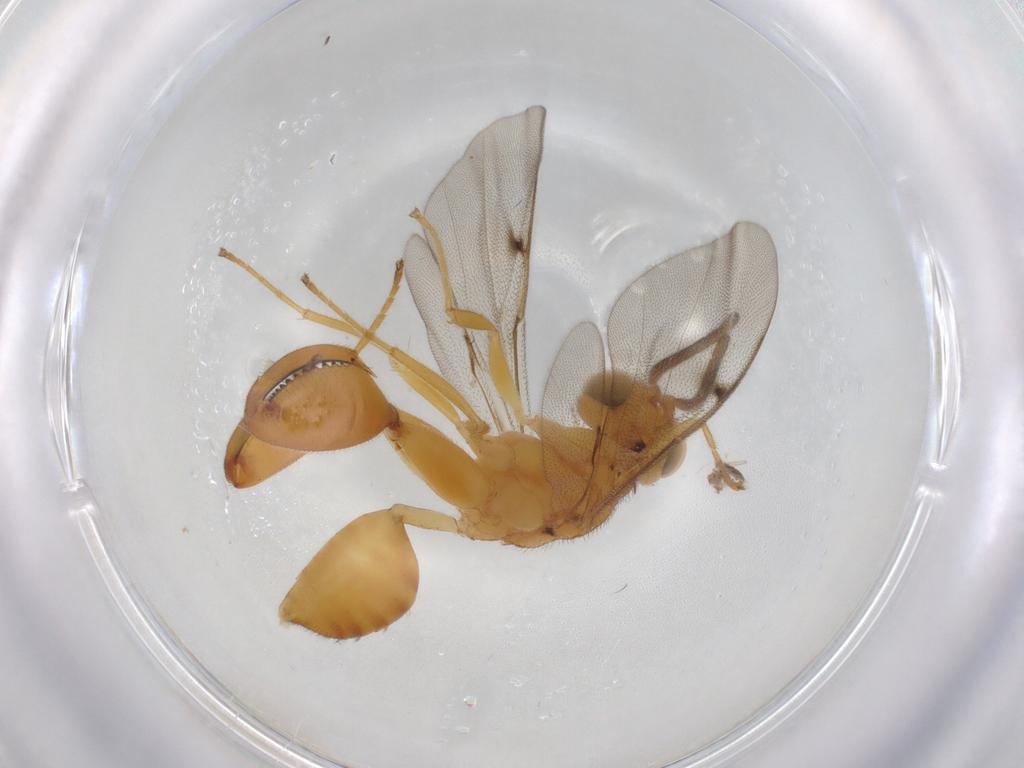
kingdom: Animalia
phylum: Arthropoda
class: Insecta
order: Hymenoptera
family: Chalcididae
